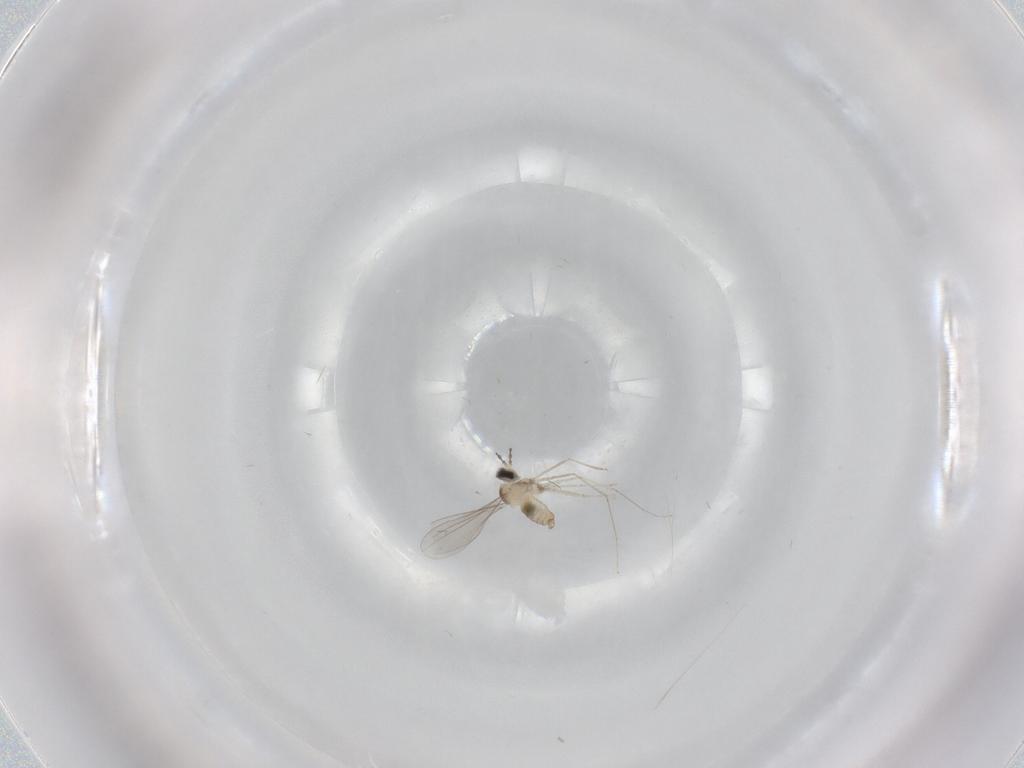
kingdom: Animalia
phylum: Arthropoda
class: Insecta
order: Diptera
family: Cecidomyiidae
